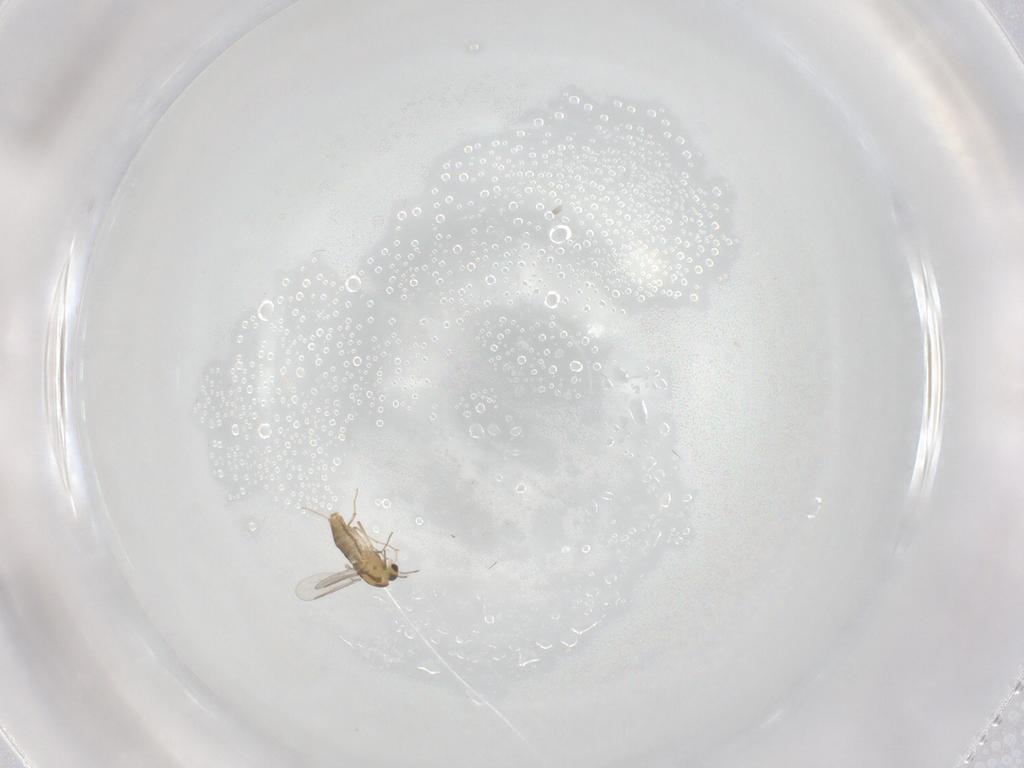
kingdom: Animalia
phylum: Arthropoda
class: Insecta
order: Diptera
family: Chironomidae
